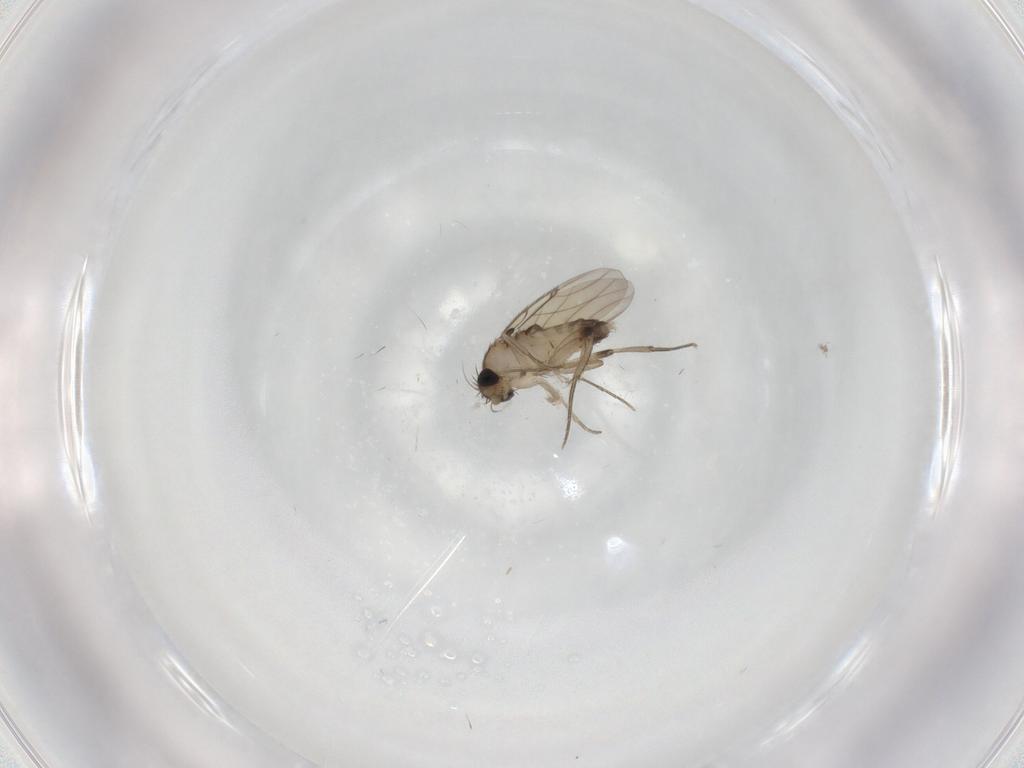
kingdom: Animalia
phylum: Arthropoda
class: Insecta
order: Diptera
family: Phoridae
